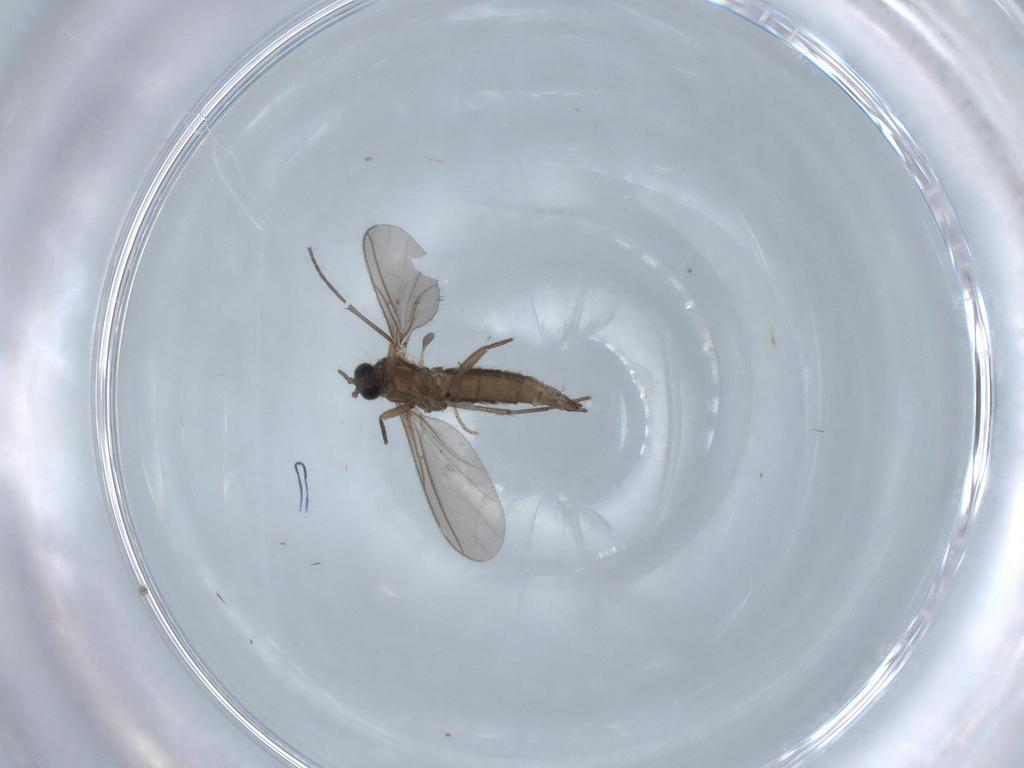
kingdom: Animalia
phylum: Arthropoda
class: Insecta
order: Diptera
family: Sciaridae
